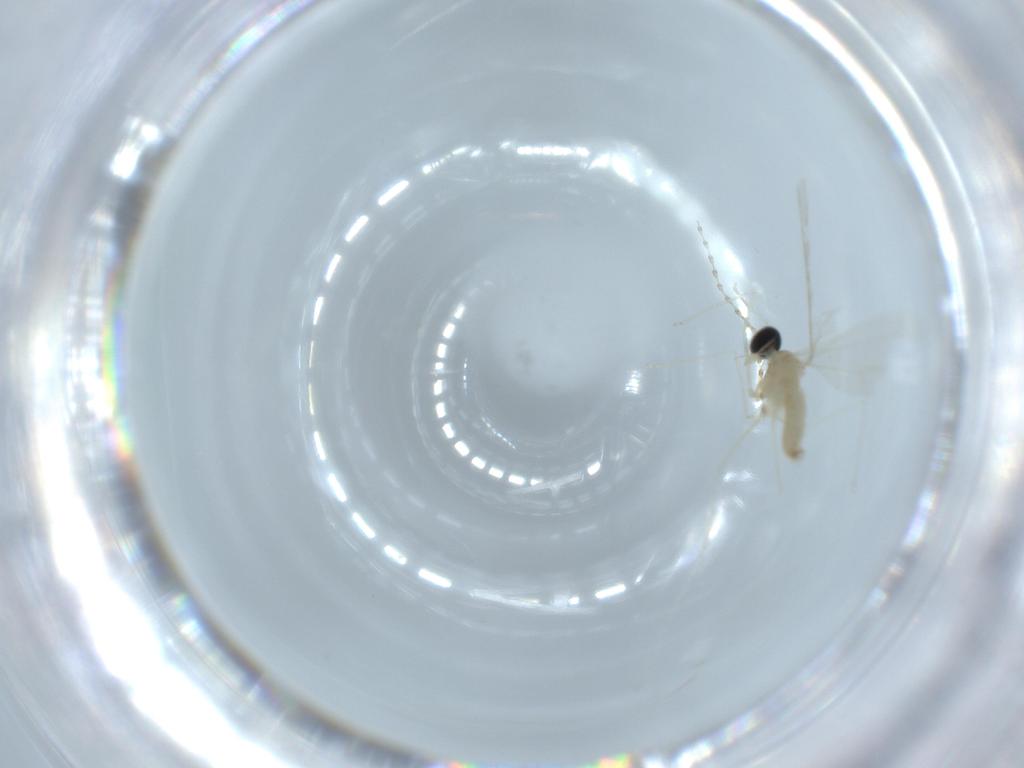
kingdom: Animalia
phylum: Arthropoda
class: Insecta
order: Diptera
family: Cecidomyiidae
